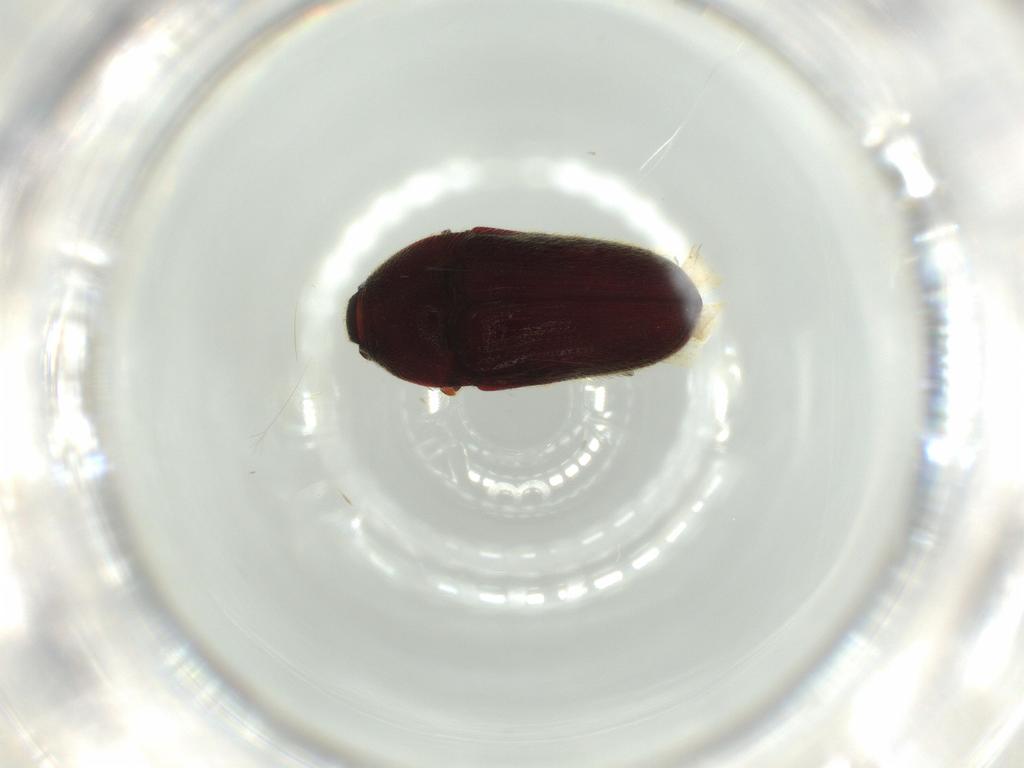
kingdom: Animalia
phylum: Arthropoda
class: Insecta
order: Coleoptera
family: Throscidae
